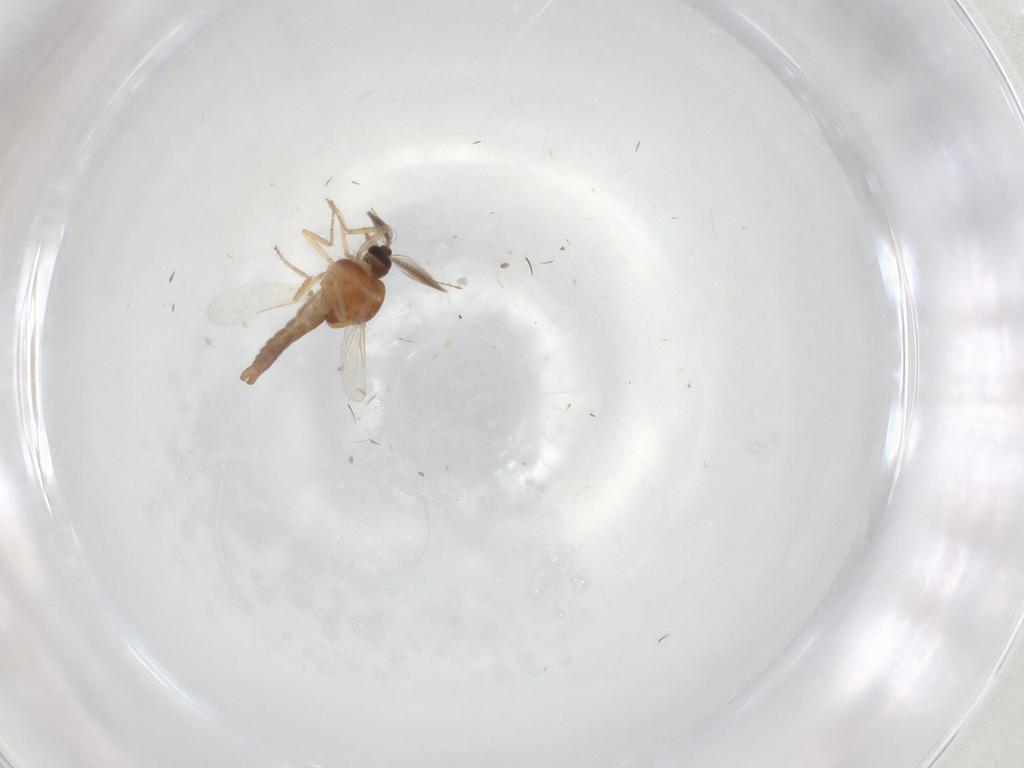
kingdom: Animalia
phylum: Arthropoda
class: Insecta
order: Diptera
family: Ceratopogonidae
